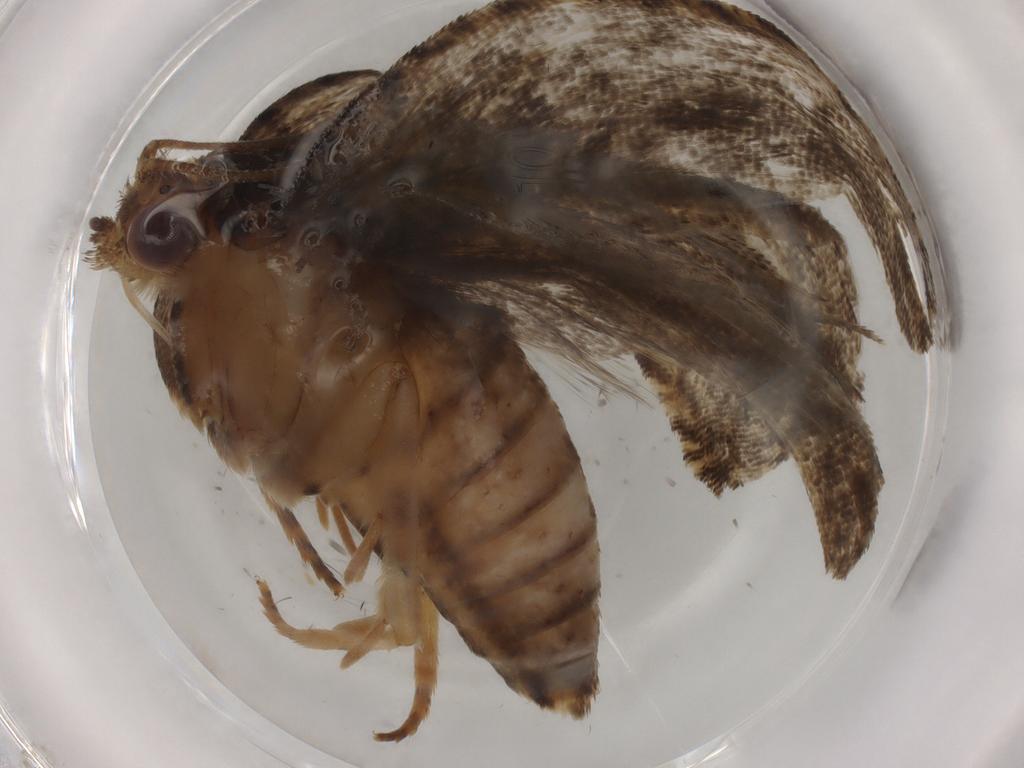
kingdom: Animalia
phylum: Arthropoda
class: Insecta
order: Lepidoptera
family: Tortricidae
